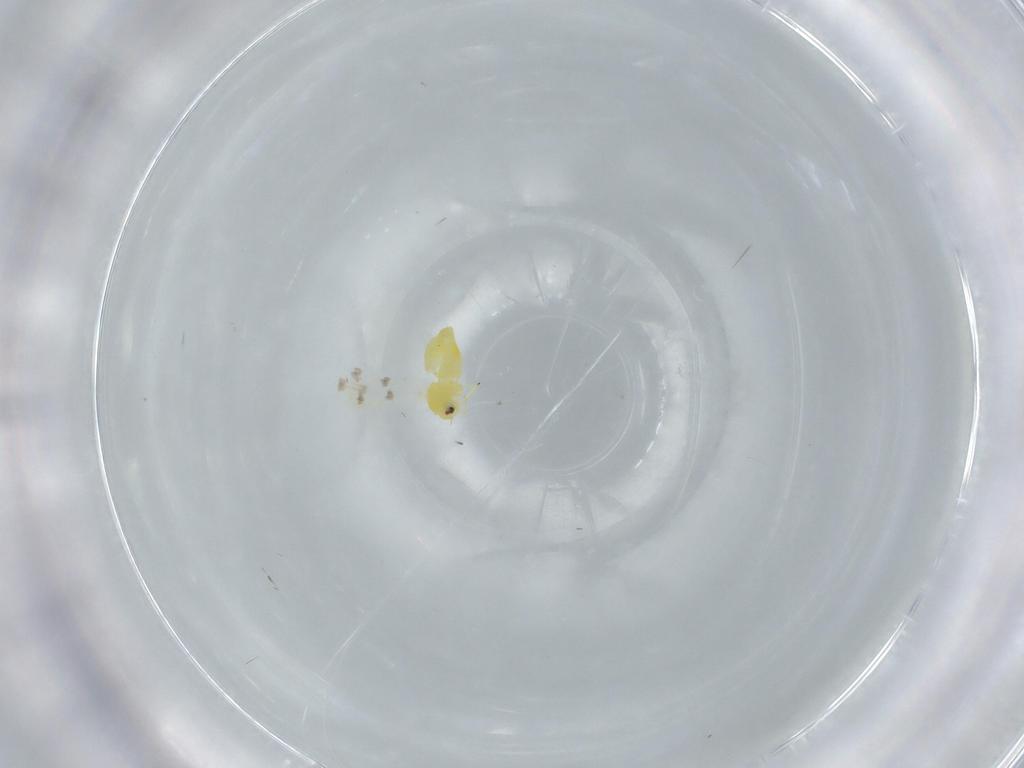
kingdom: Animalia
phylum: Arthropoda
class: Insecta
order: Hemiptera
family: Aleyrodidae
